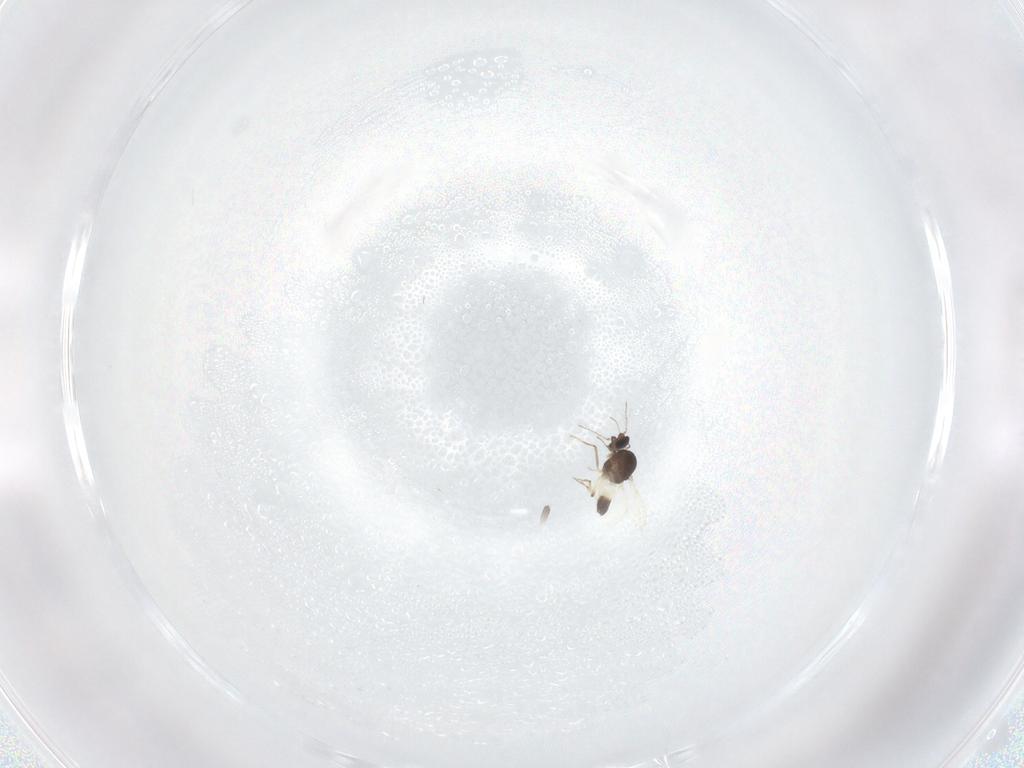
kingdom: Animalia
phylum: Arthropoda
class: Insecta
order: Diptera
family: Ceratopogonidae
